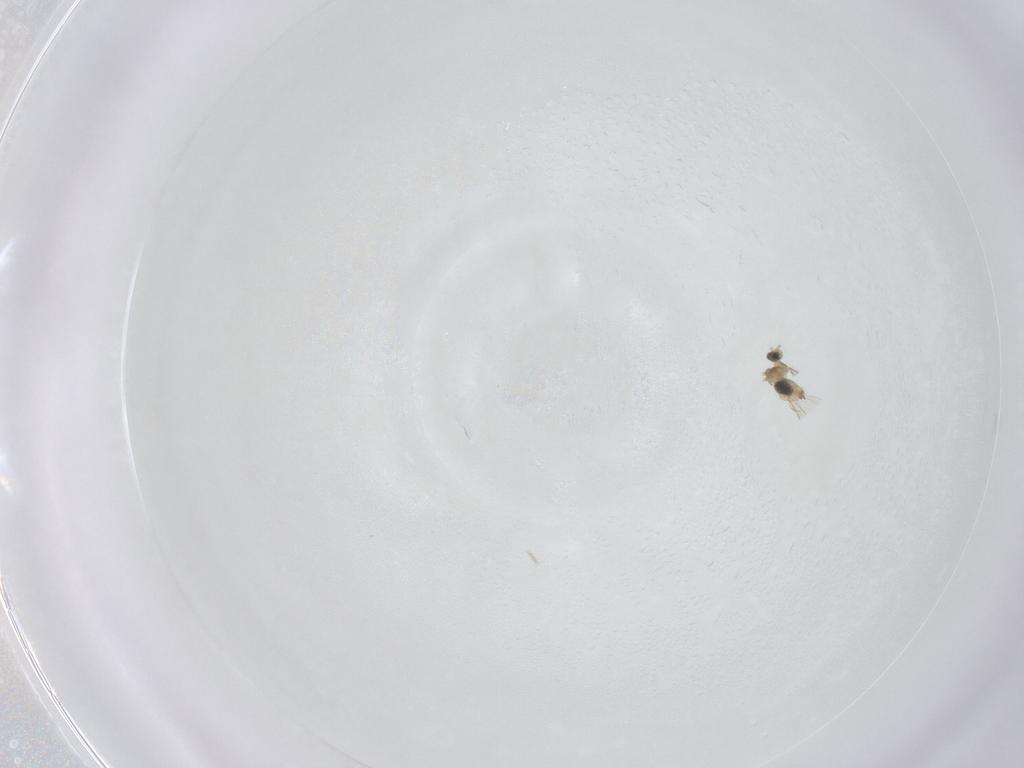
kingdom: Animalia
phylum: Arthropoda
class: Insecta
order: Diptera
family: Cecidomyiidae
